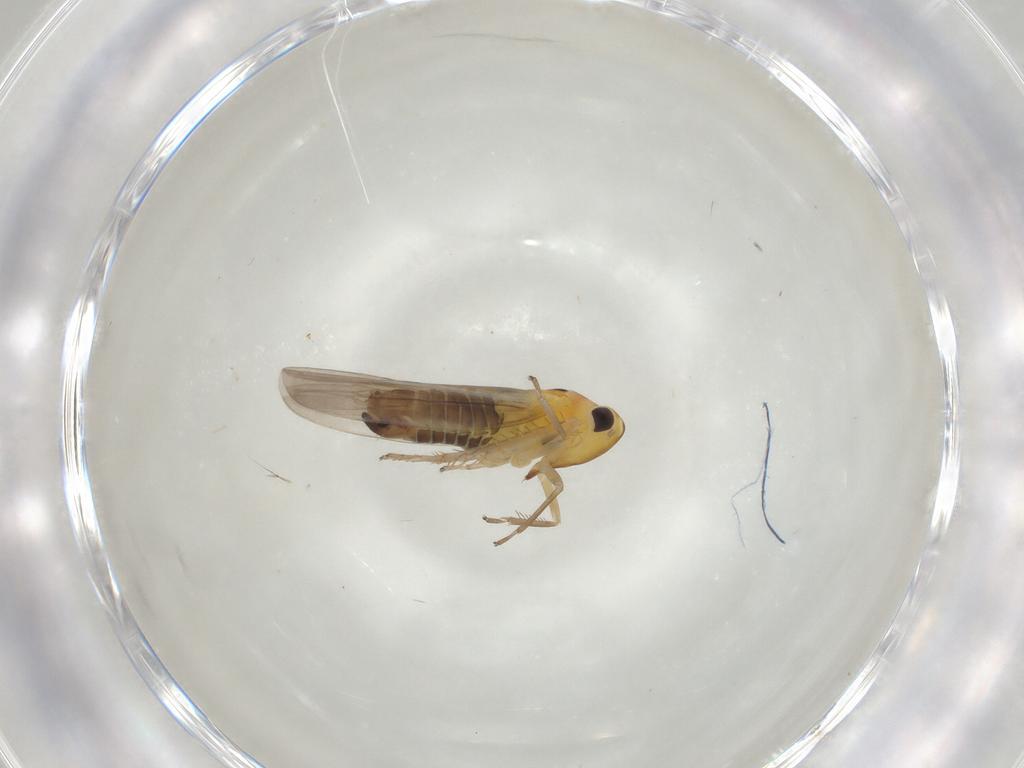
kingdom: Animalia
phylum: Arthropoda
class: Insecta
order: Hemiptera
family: Cicadellidae
